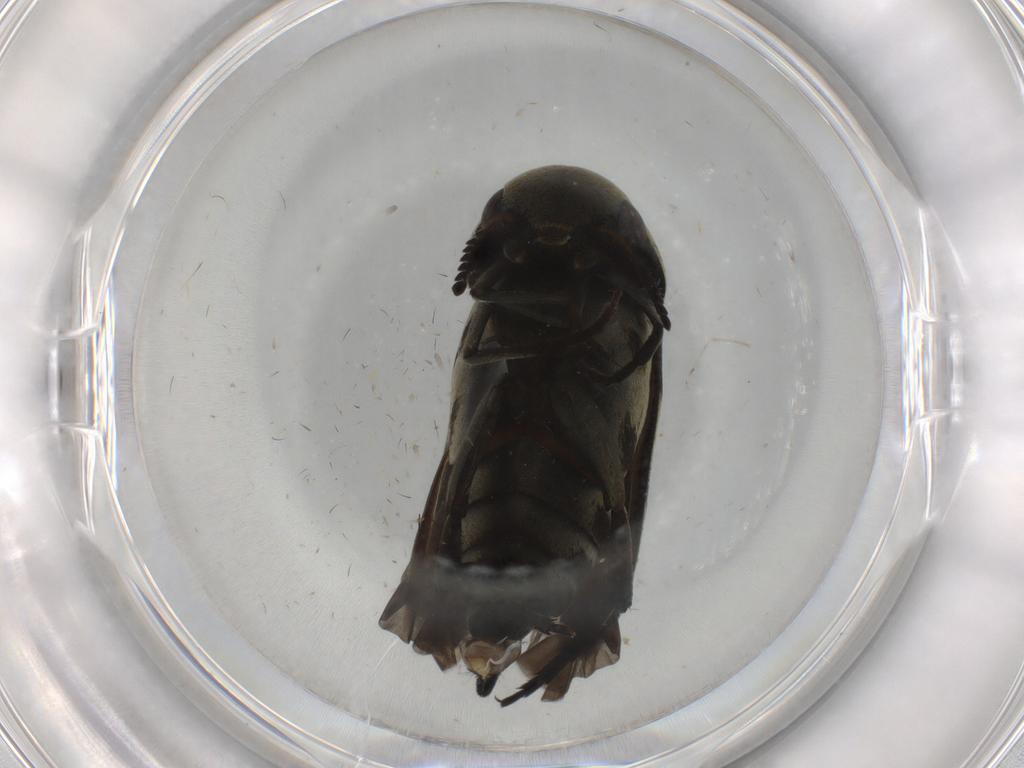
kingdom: Animalia
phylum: Arthropoda
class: Insecta
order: Coleoptera
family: Mordellidae
